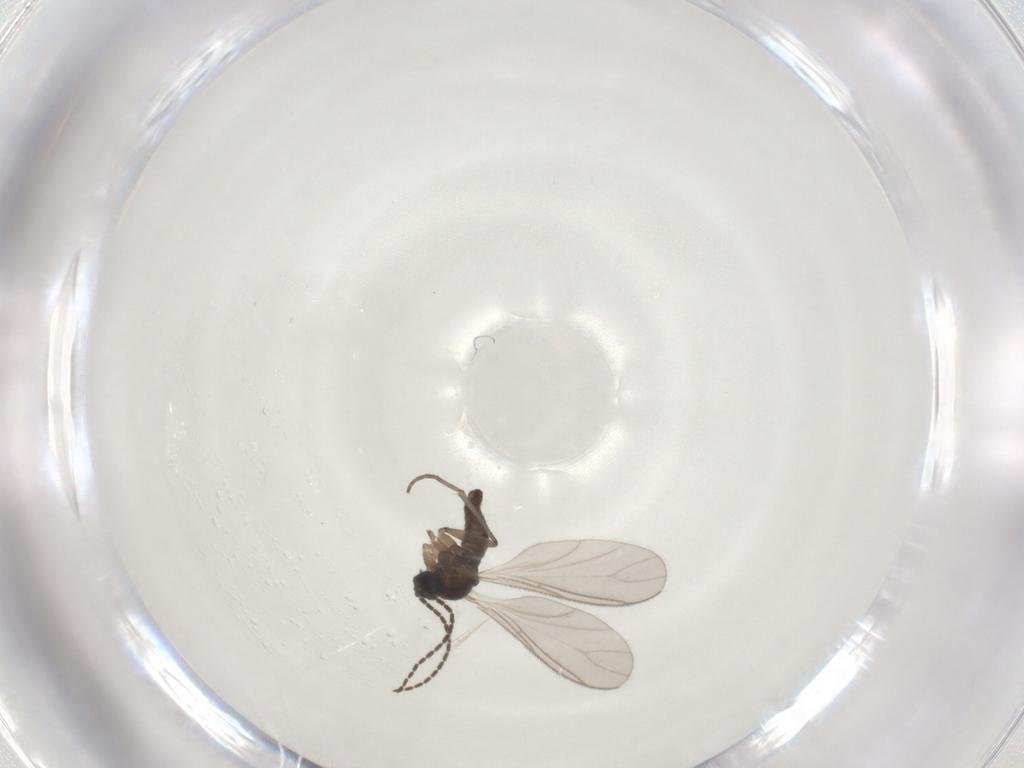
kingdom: Animalia
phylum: Arthropoda
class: Insecta
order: Diptera
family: Sciaridae
